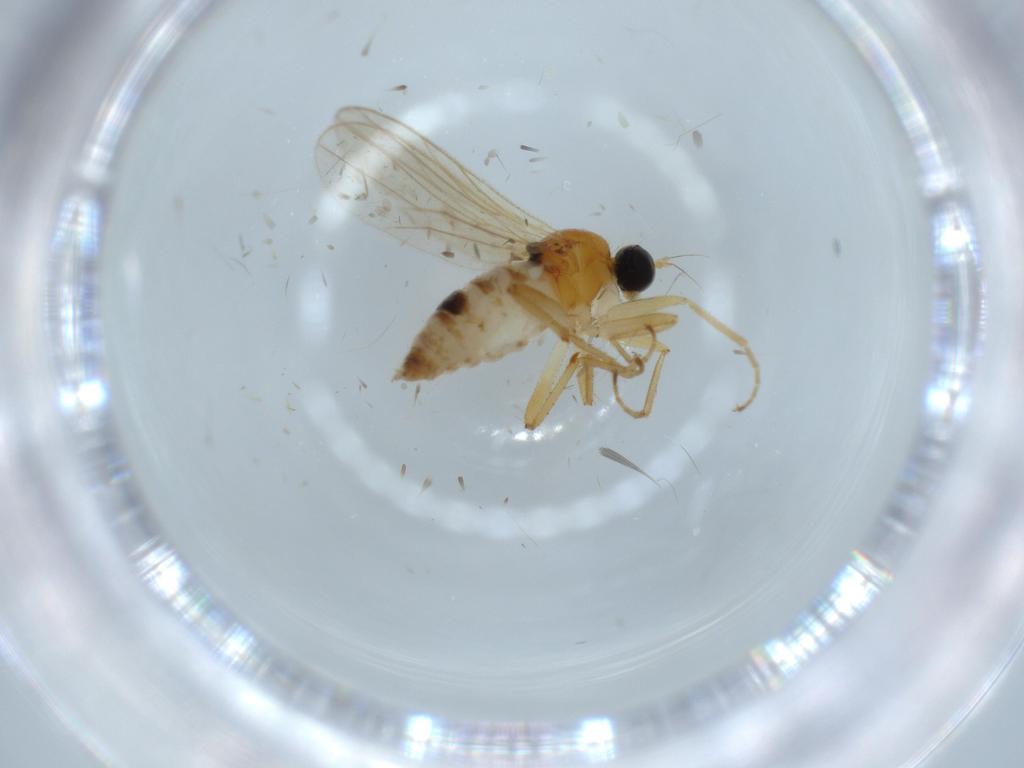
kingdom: Animalia
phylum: Arthropoda
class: Insecta
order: Diptera
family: Hybotidae
